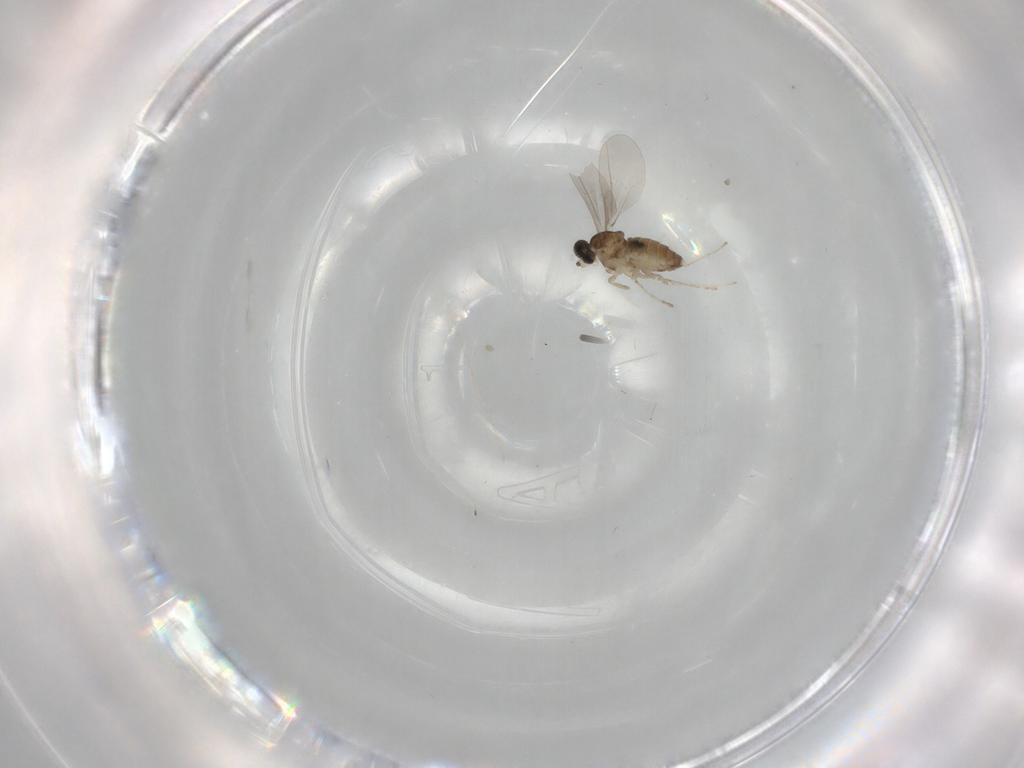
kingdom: Animalia
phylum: Arthropoda
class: Insecta
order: Diptera
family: Cecidomyiidae
